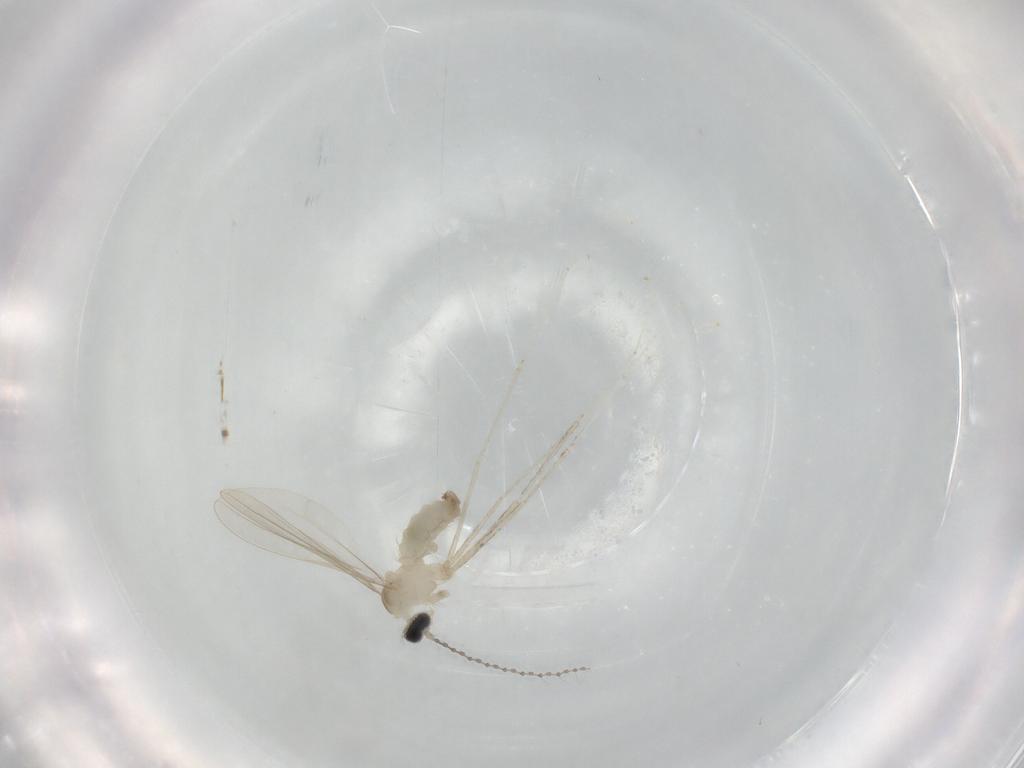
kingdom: Animalia
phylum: Arthropoda
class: Insecta
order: Diptera
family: Cecidomyiidae
